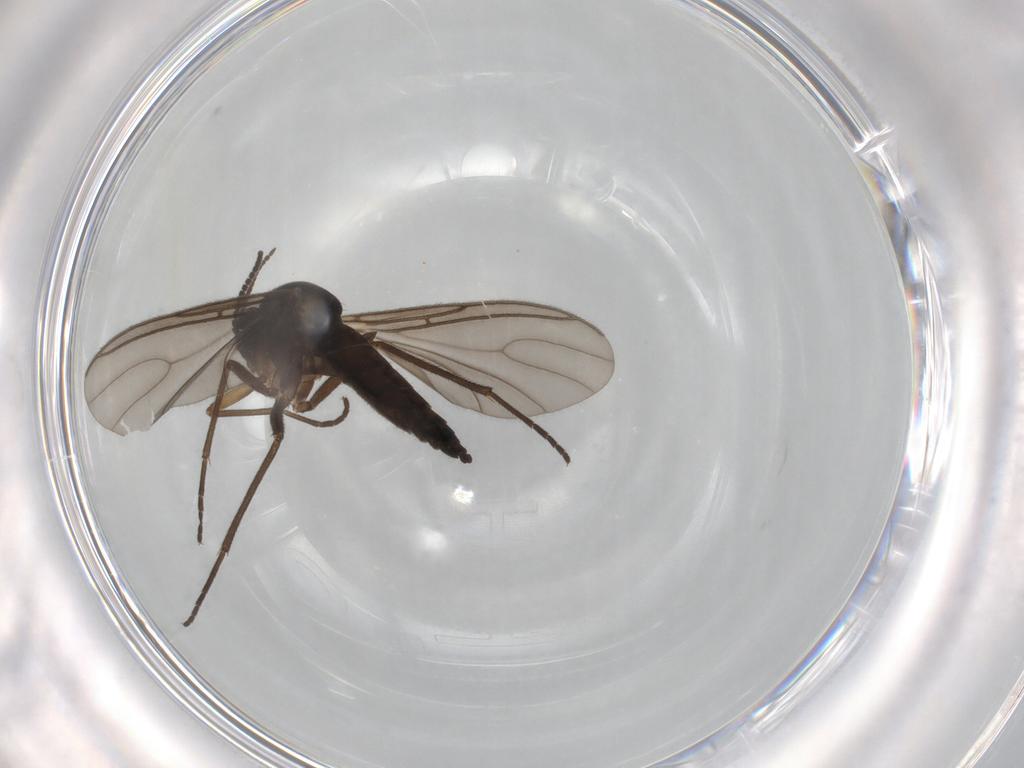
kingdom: Animalia
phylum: Arthropoda
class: Insecta
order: Diptera
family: Sciaridae
